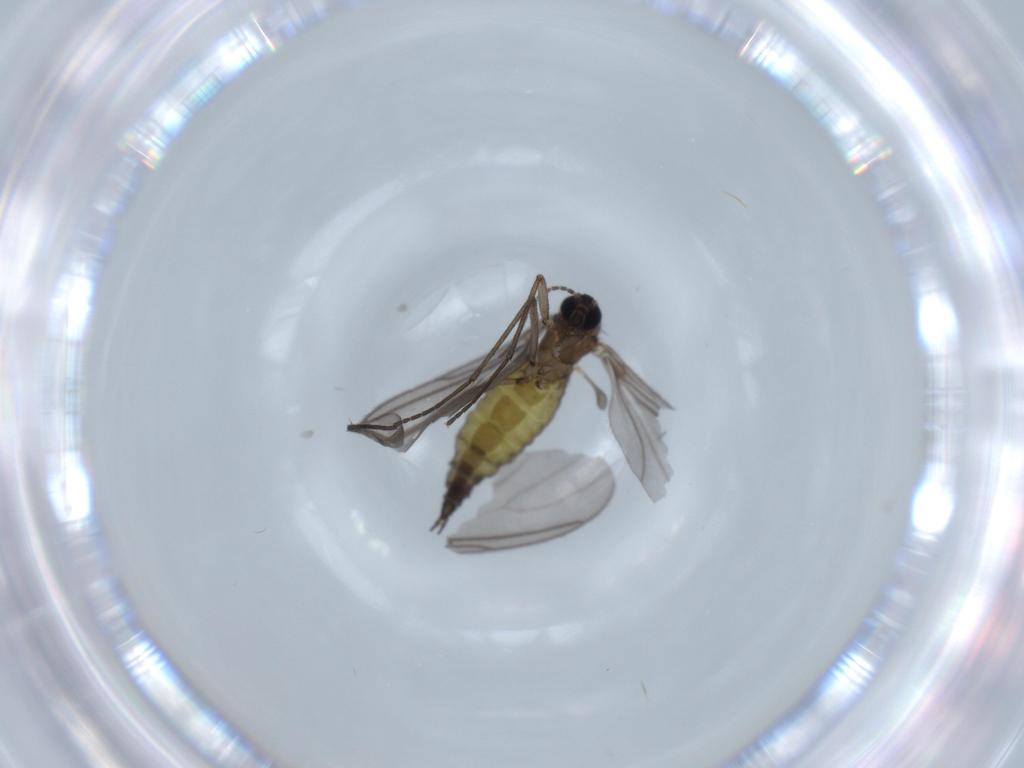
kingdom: Animalia
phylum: Arthropoda
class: Insecta
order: Diptera
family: Sciaridae
